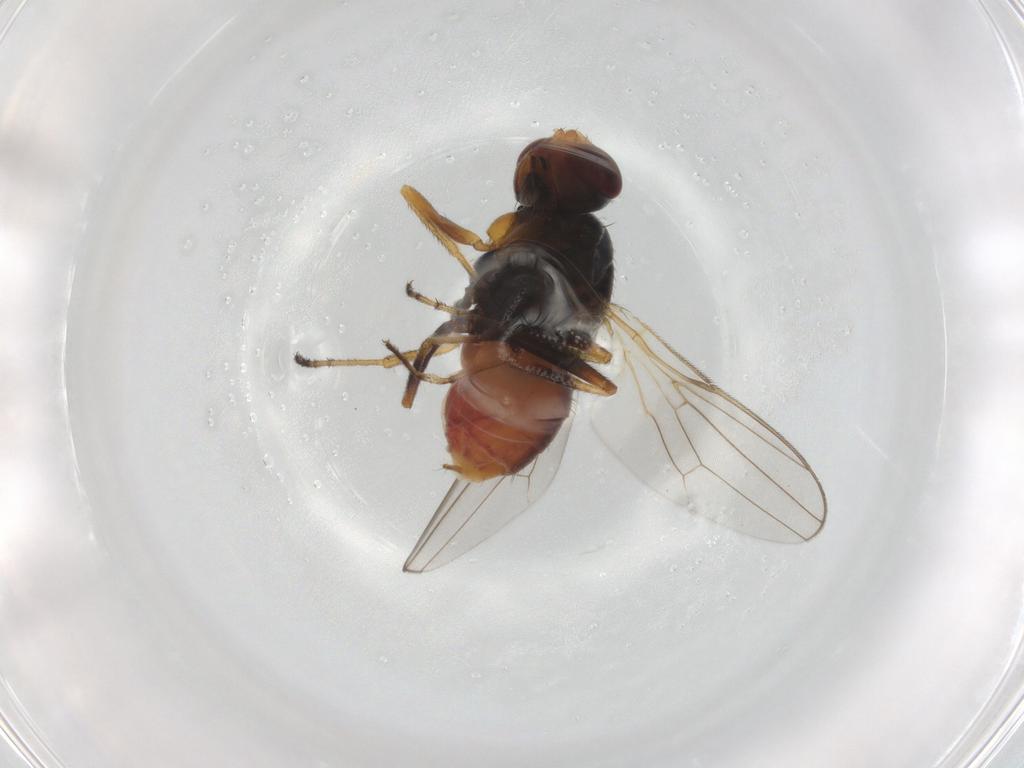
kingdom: Animalia
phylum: Arthropoda
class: Insecta
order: Diptera
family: Chloropidae
